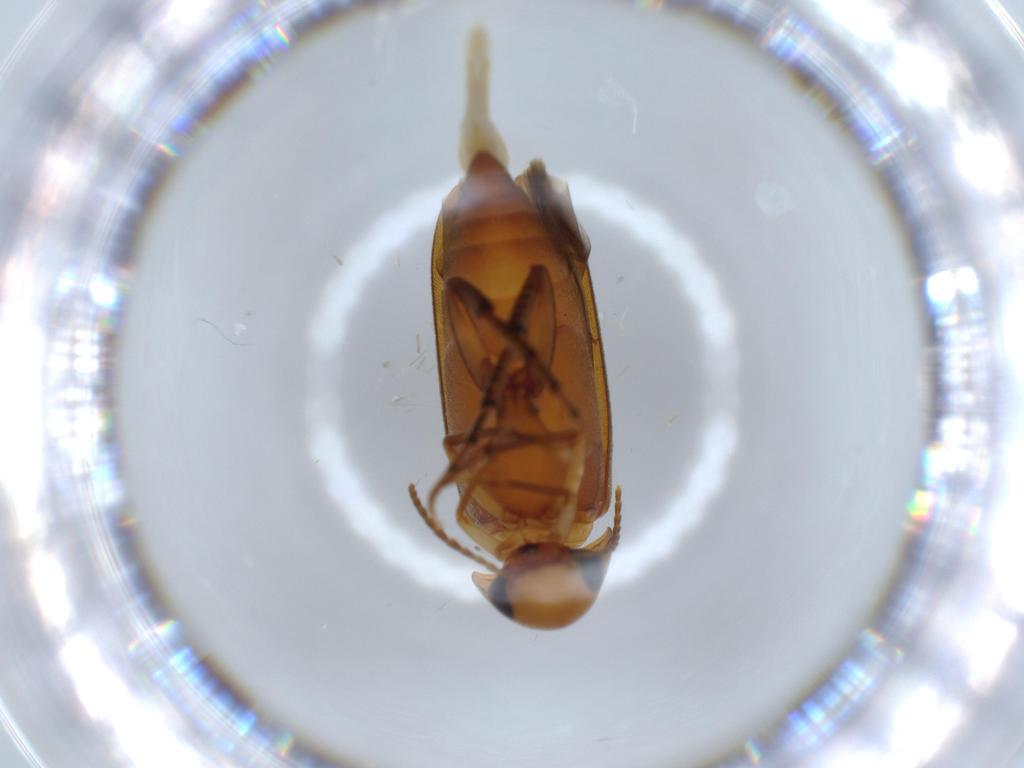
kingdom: Animalia
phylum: Arthropoda
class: Insecta
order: Coleoptera
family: Mordellidae
